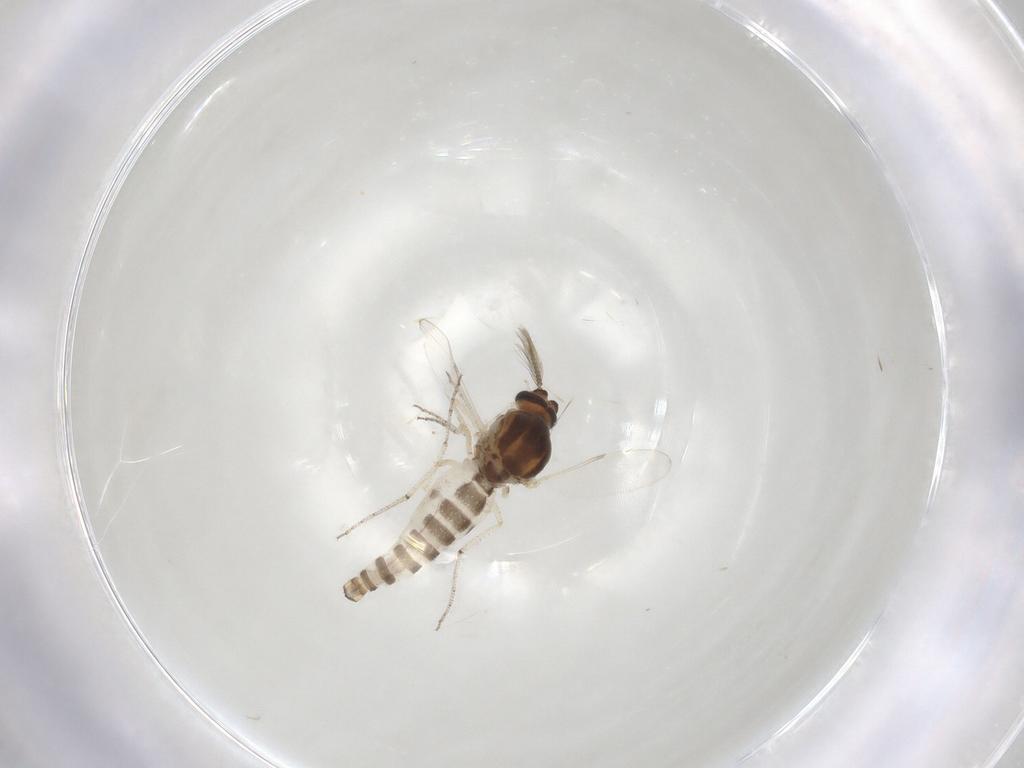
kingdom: Animalia
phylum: Arthropoda
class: Insecta
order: Diptera
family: Ceratopogonidae
